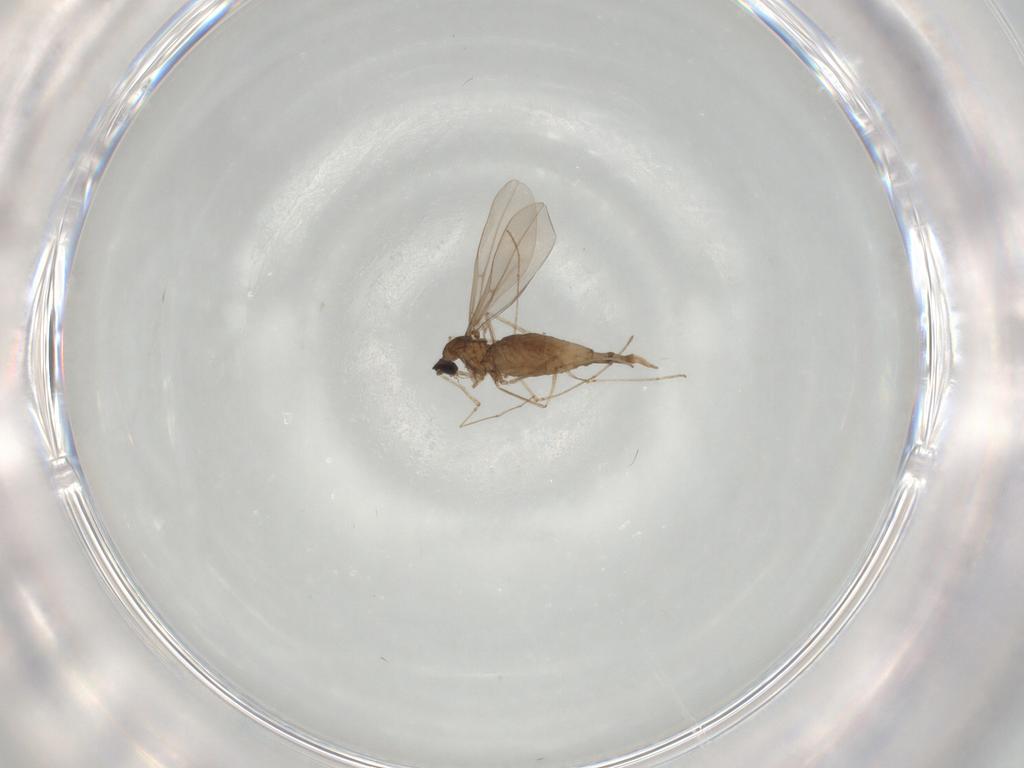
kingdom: Animalia
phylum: Arthropoda
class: Insecta
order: Diptera
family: Cecidomyiidae
